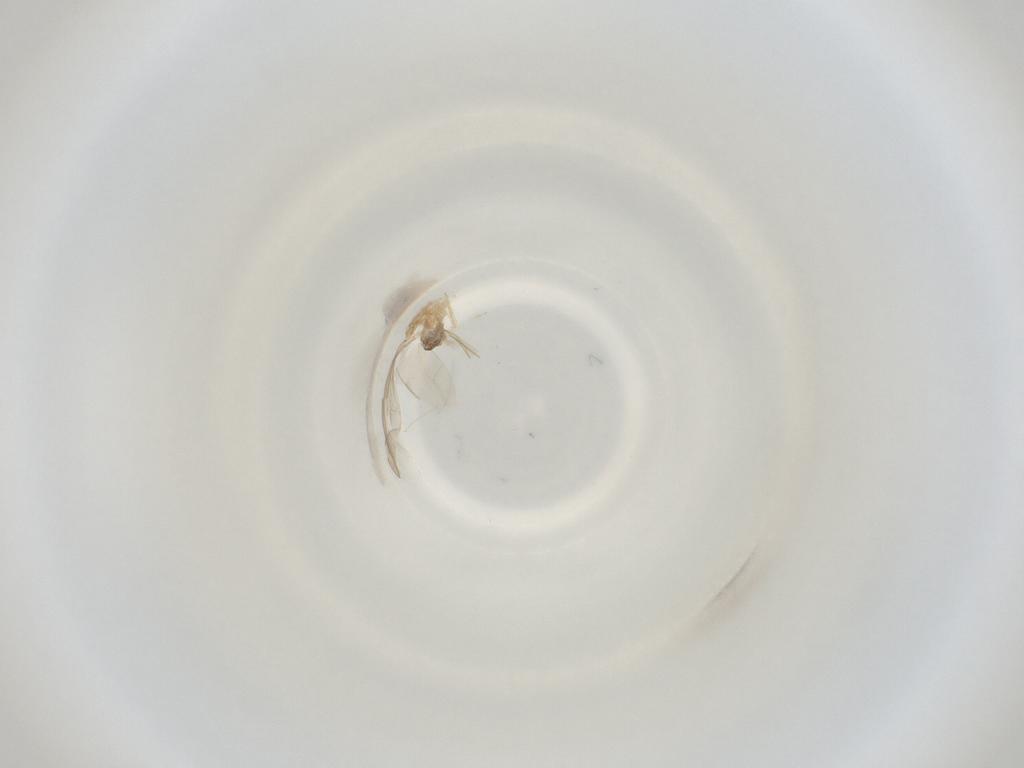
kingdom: Animalia
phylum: Arthropoda
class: Insecta
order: Diptera
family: Cecidomyiidae
